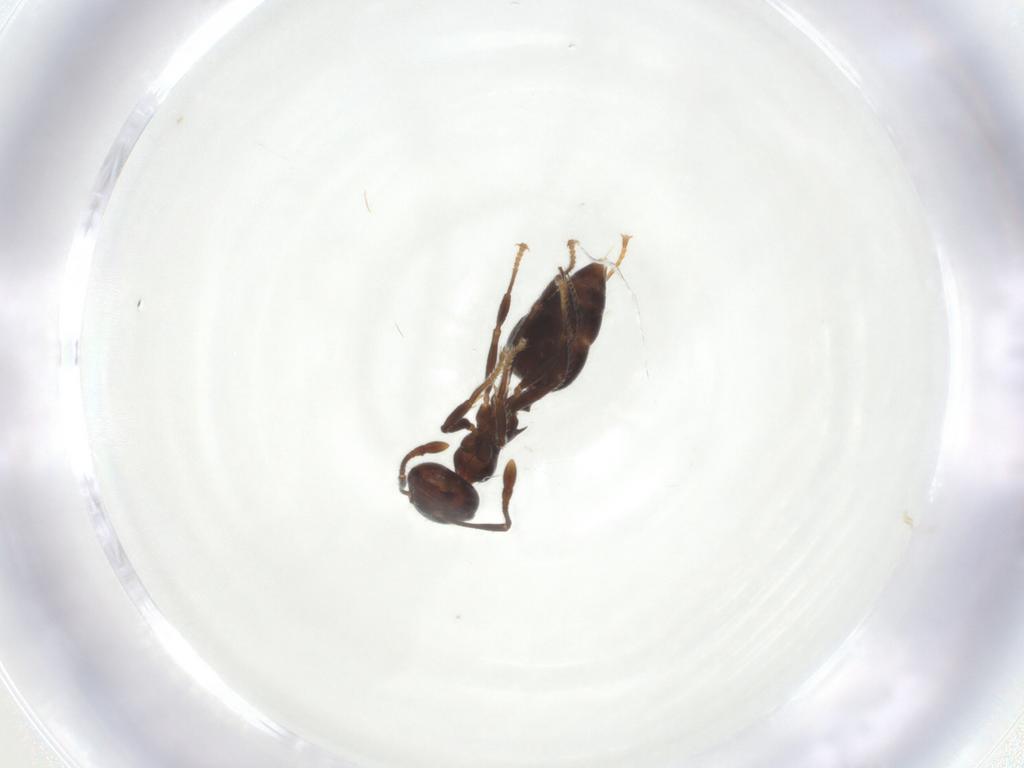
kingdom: Animalia
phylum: Arthropoda
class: Insecta
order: Hymenoptera
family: Formicidae
